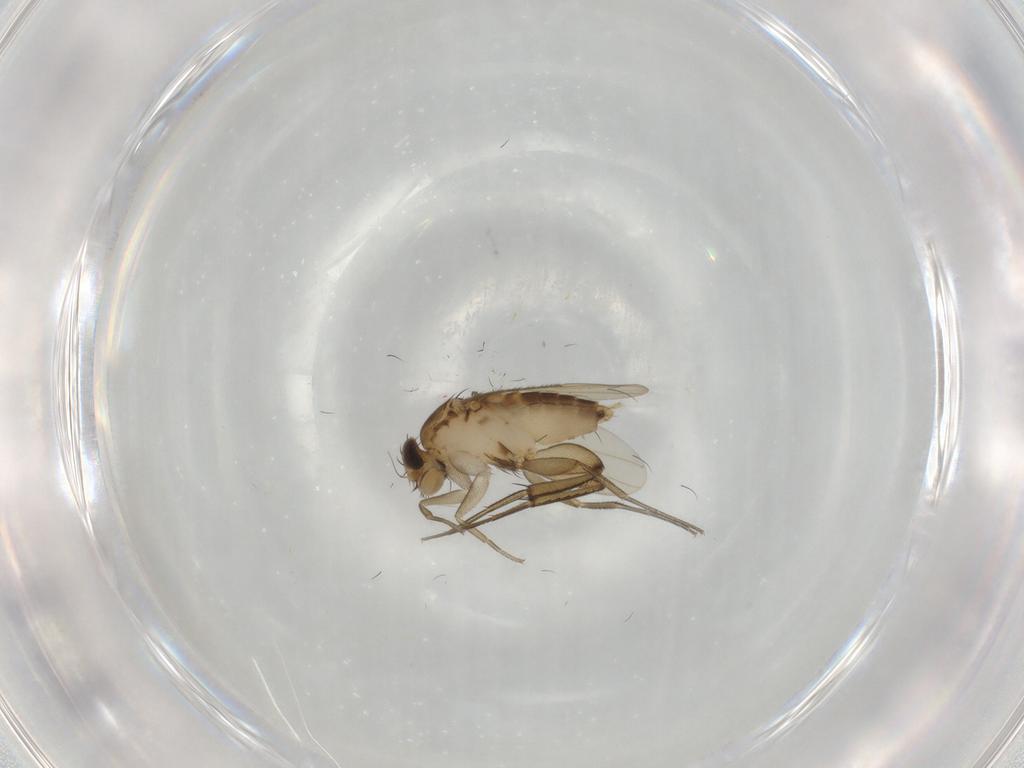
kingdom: Animalia
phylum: Arthropoda
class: Insecta
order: Diptera
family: Phoridae
